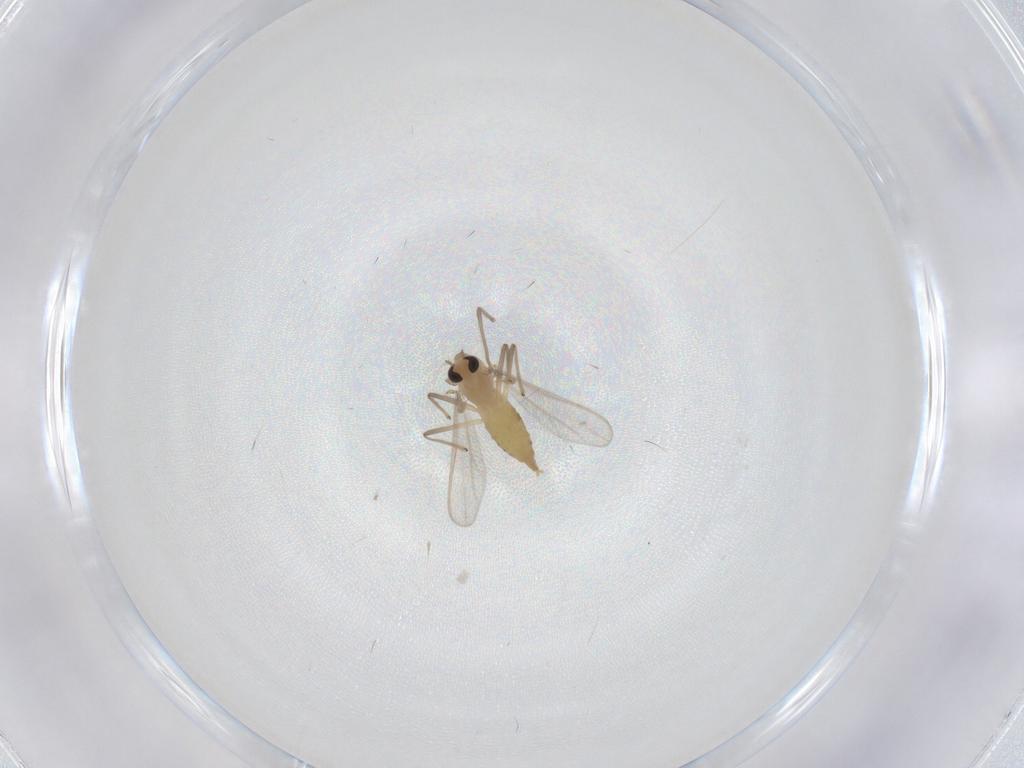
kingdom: Animalia
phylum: Arthropoda
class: Insecta
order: Diptera
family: Chironomidae
